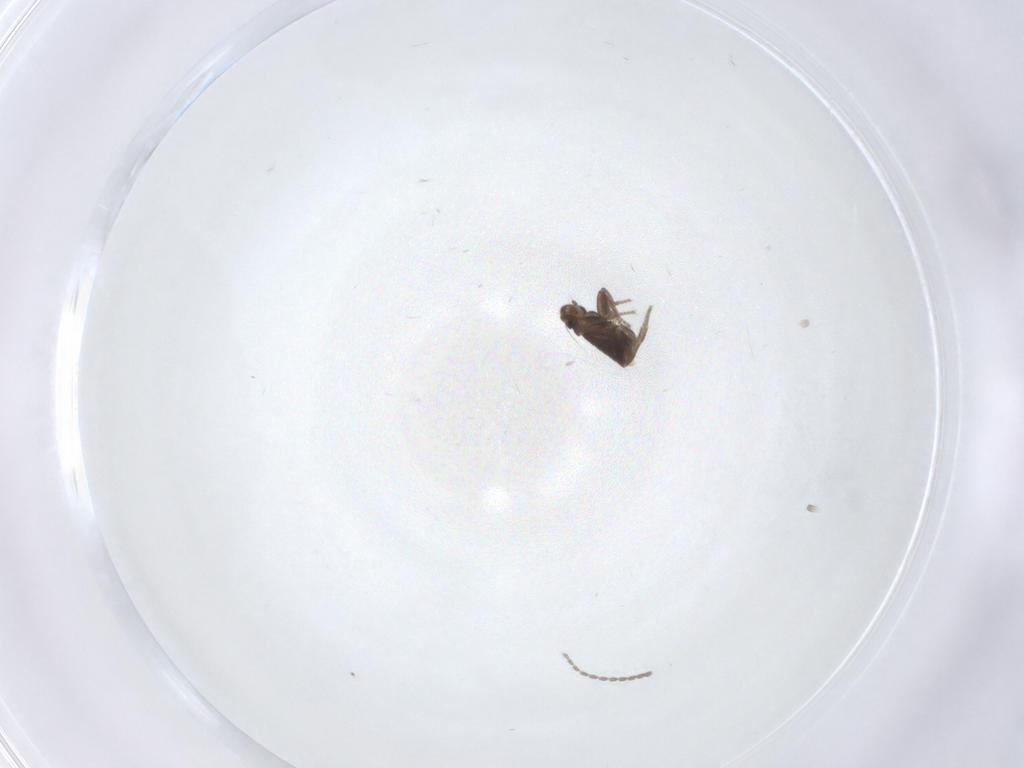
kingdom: Animalia
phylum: Arthropoda
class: Insecta
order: Diptera
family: Phoridae
